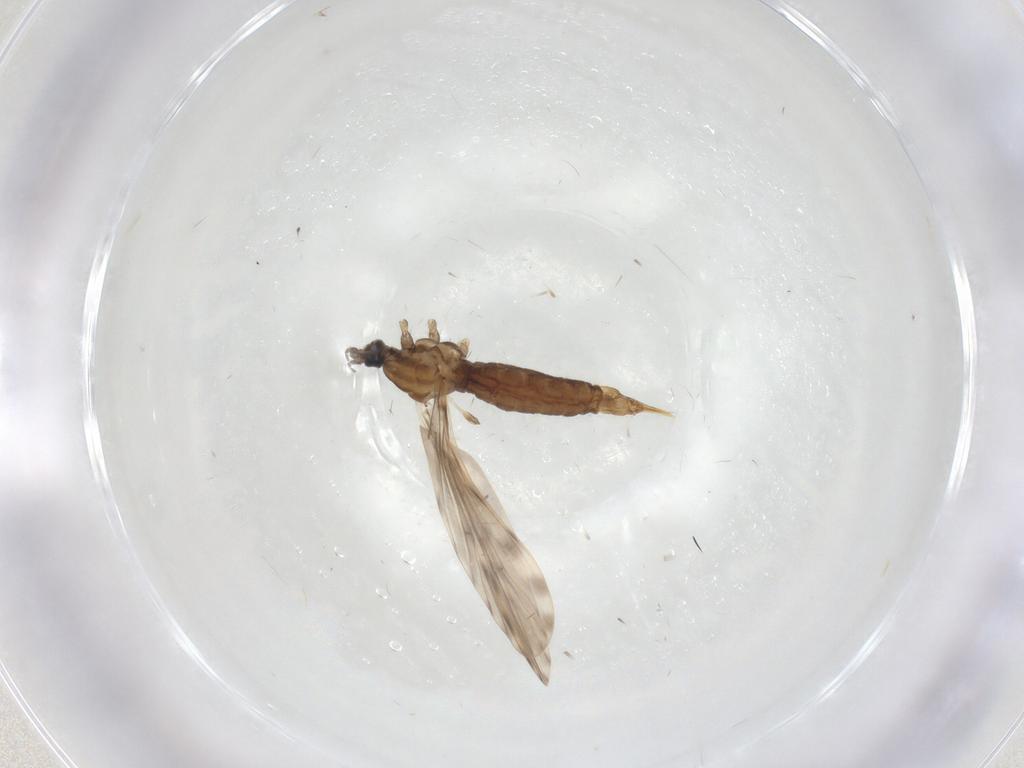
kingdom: Animalia
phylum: Arthropoda
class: Insecta
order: Diptera
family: Limoniidae
